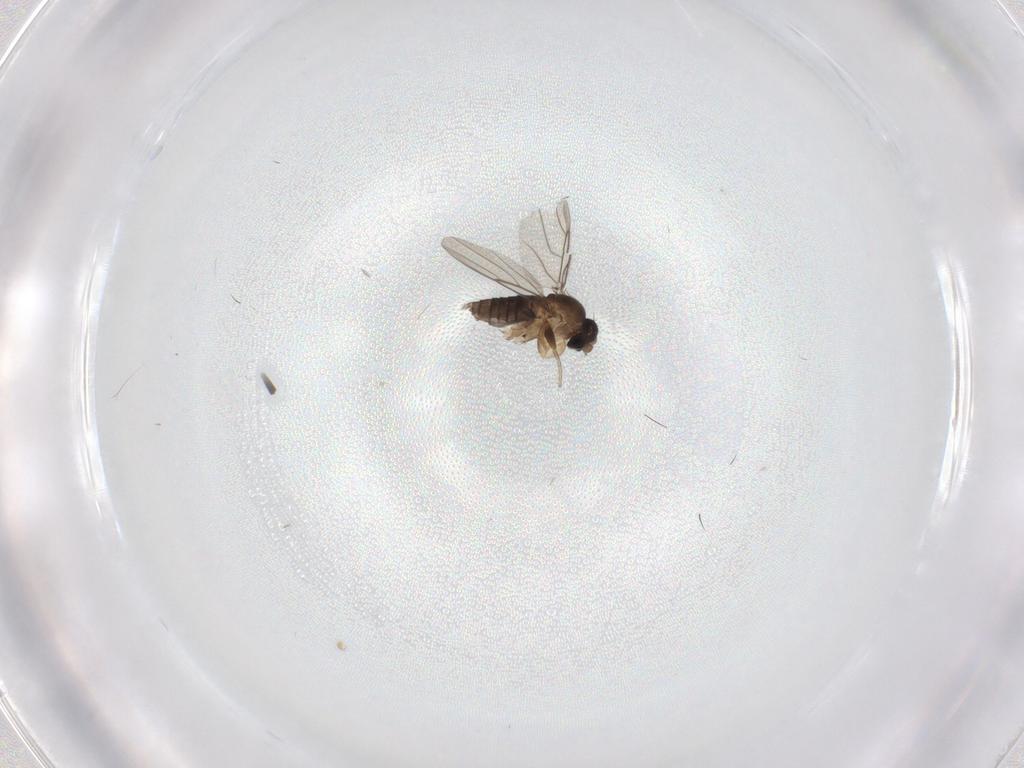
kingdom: Animalia
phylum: Arthropoda
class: Insecta
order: Diptera
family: Phoridae
